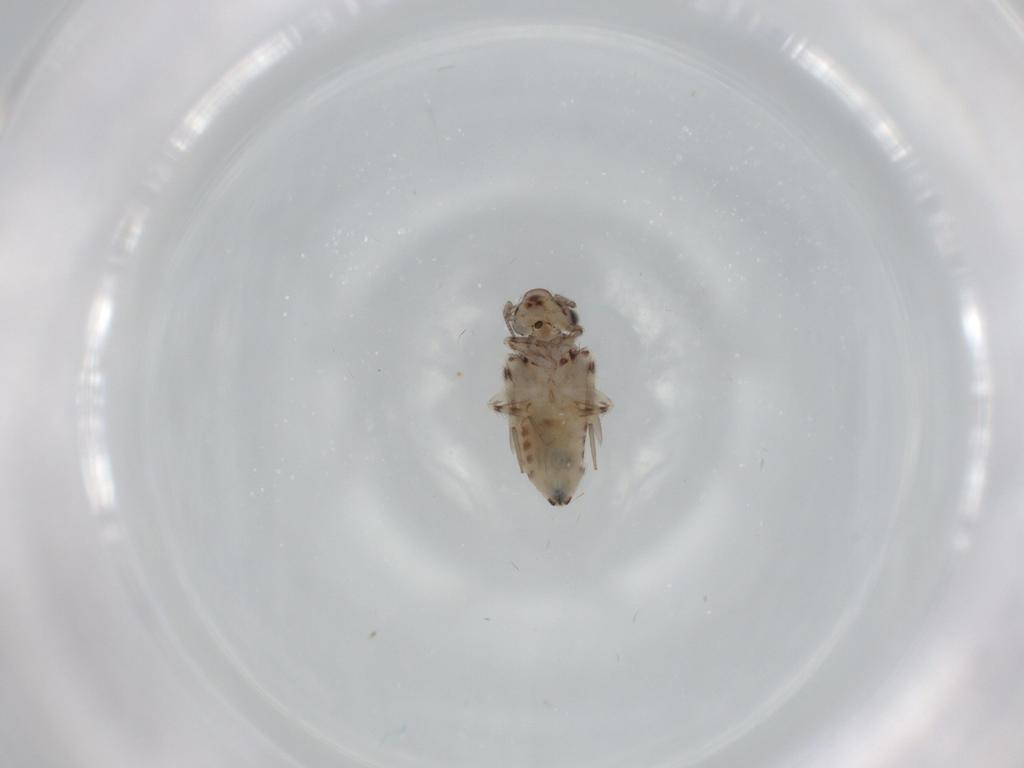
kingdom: Animalia
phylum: Arthropoda
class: Insecta
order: Psocodea
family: Lepidopsocidae
